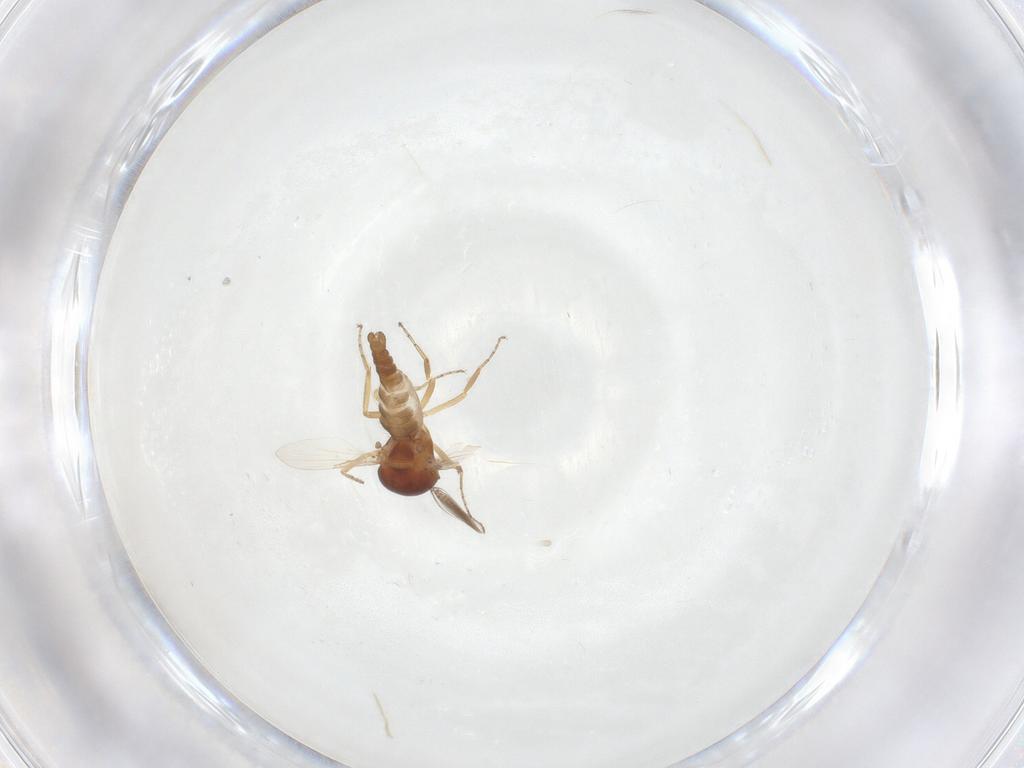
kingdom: Animalia
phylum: Arthropoda
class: Insecta
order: Diptera
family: Ceratopogonidae
